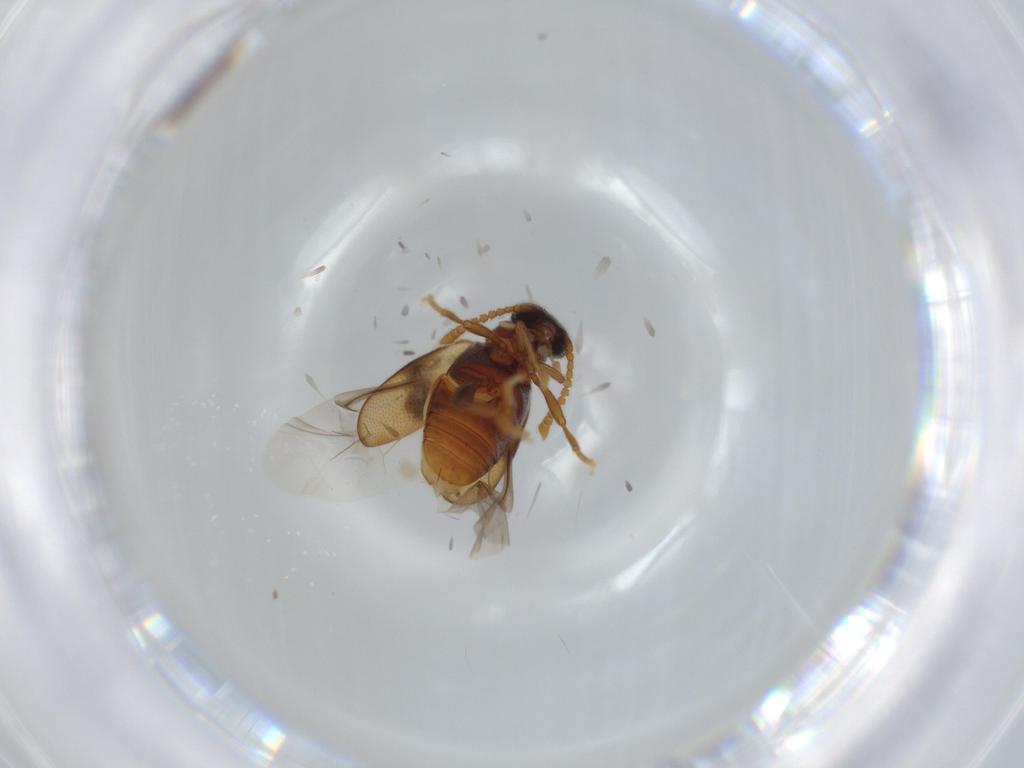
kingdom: Animalia
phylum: Arthropoda
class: Insecta
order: Coleoptera
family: Aderidae
